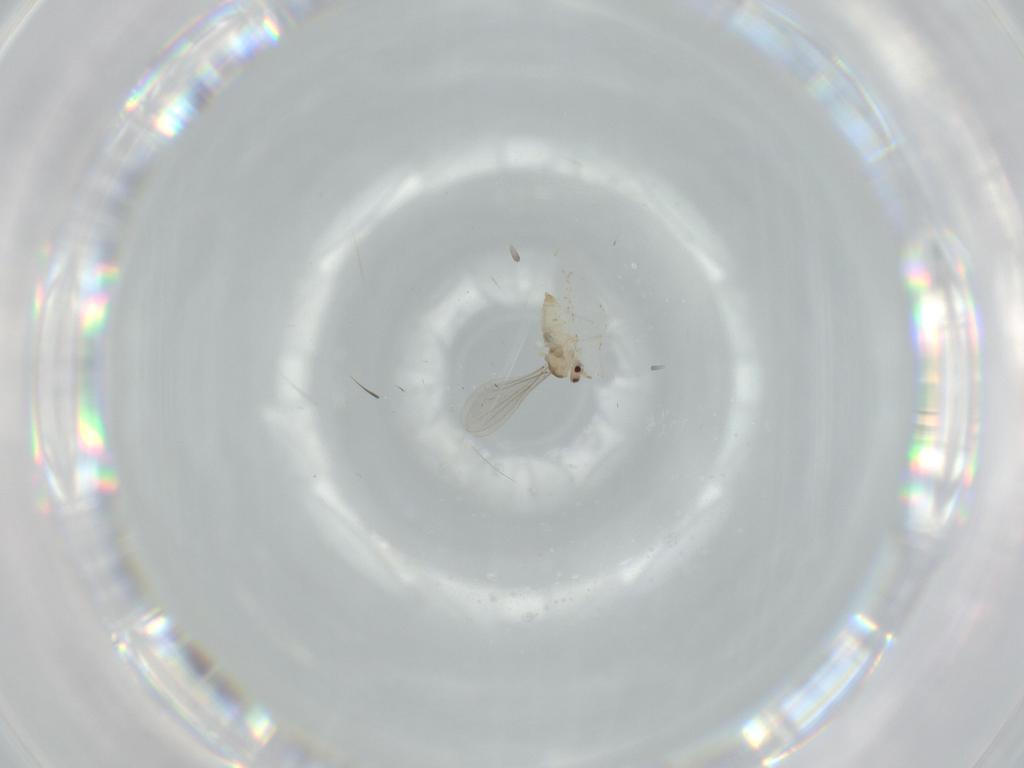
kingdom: Animalia
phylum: Arthropoda
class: Insecta
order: Diptera
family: Cecidomyiidae
